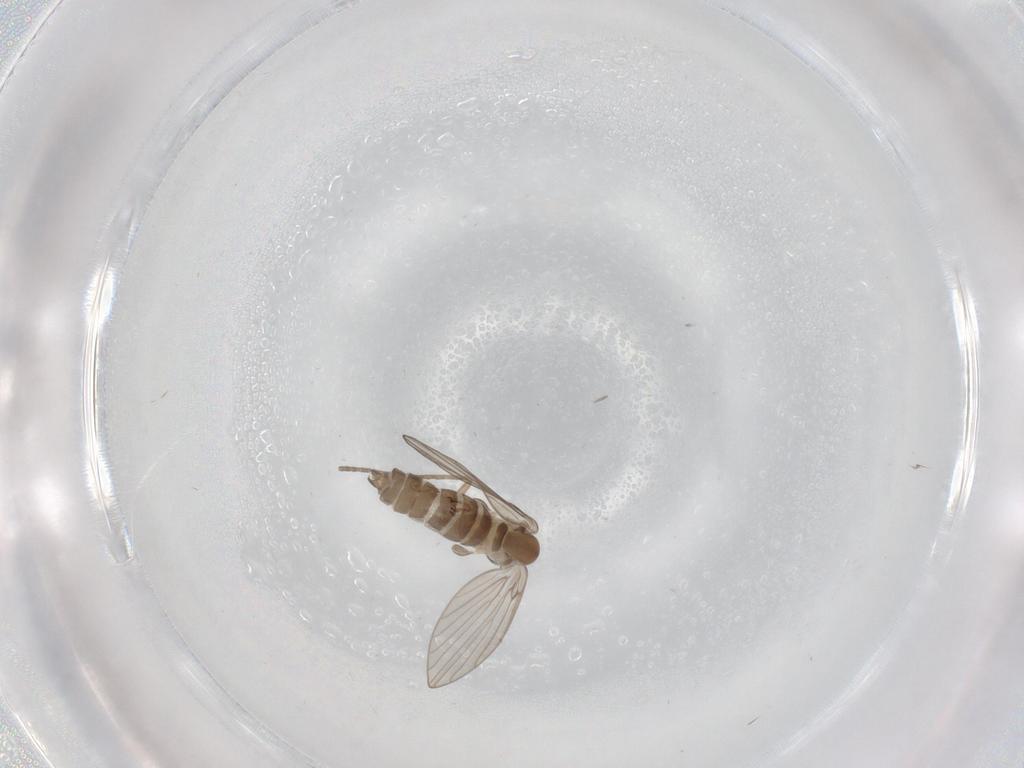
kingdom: Animalia
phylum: Arthropoda
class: Insecta
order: Diptera
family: Psychodidae
